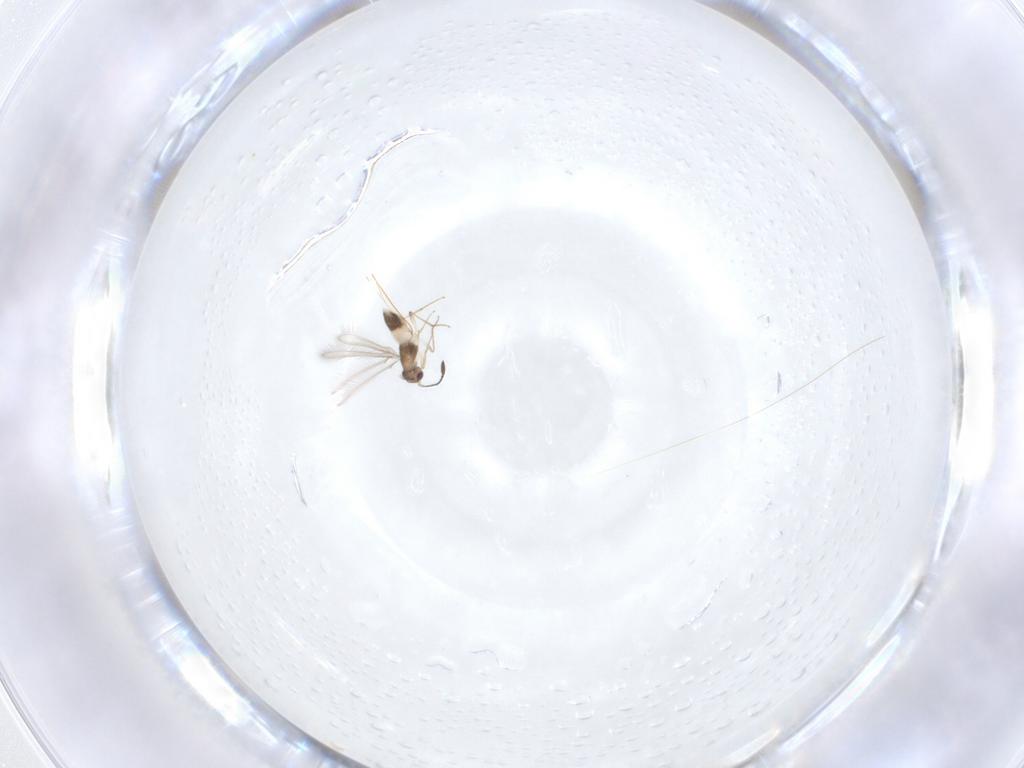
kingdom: Animalia
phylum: Arthropoda
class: Insecta
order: Hymenoptera
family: Mymaridae
